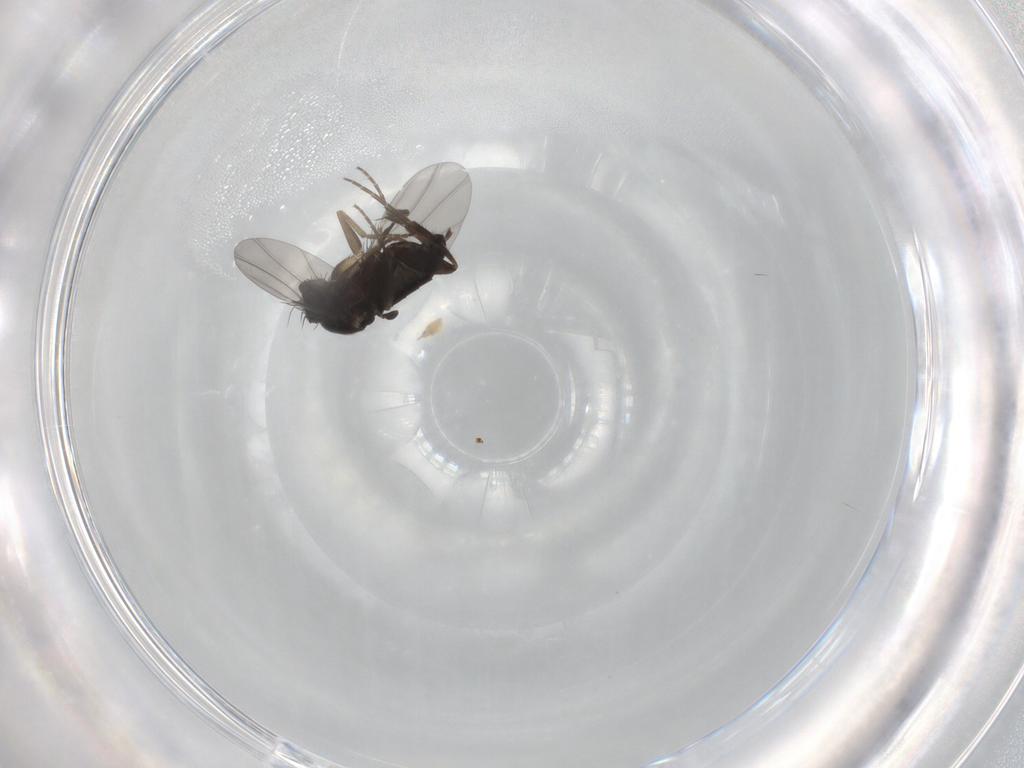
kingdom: Animalia
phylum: Arthropoda
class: Insecta
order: Diptera
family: Phoridae
